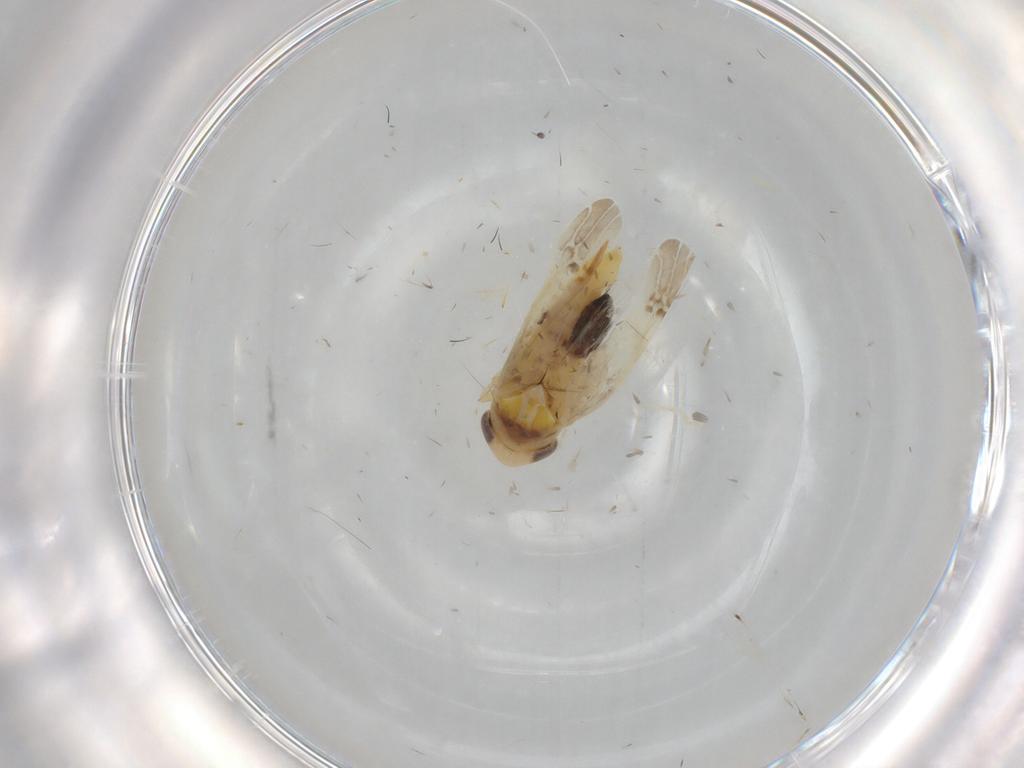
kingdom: Animalia
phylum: Arthropoda
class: Insecta
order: Hemiptera
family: Cicadellidae
